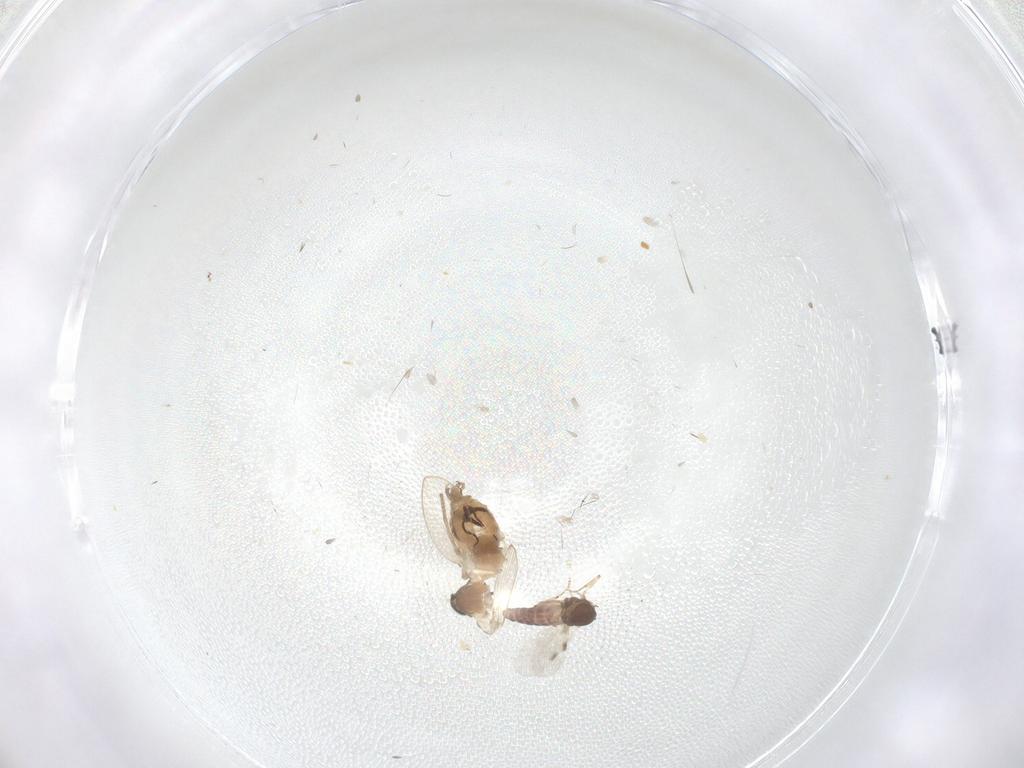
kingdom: Animalia
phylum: Arthropoda
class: Insecta
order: Diptera
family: Psychodidae
